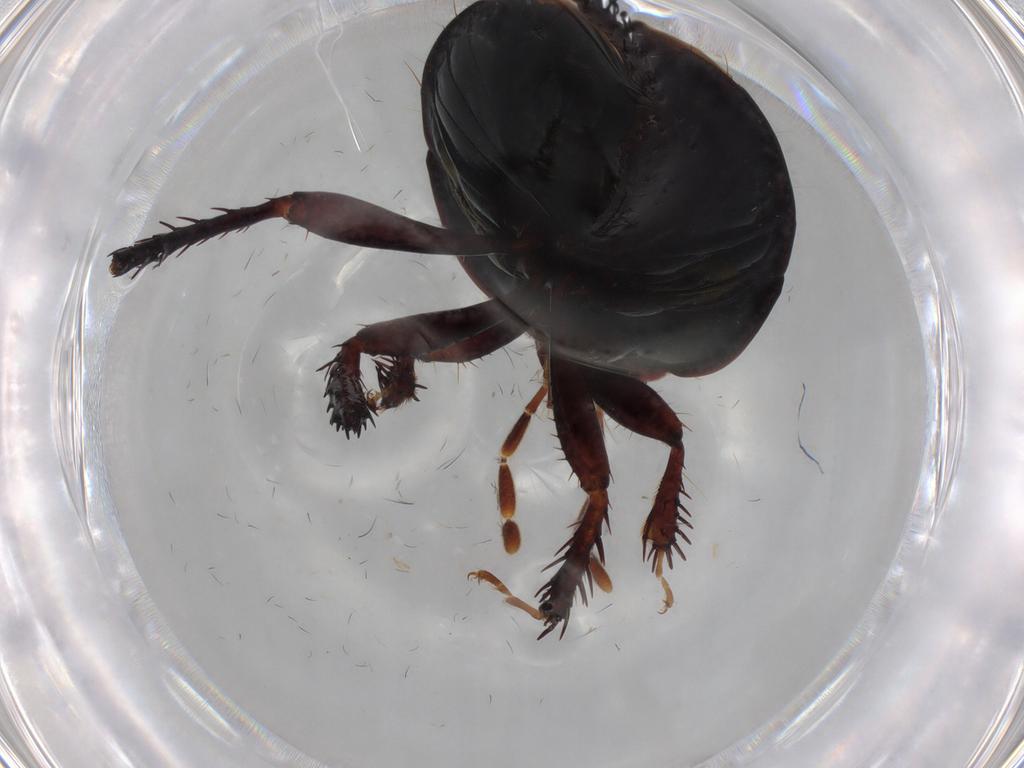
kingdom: Animalia
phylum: Arthropoda
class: Insecta
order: Hemiptera
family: Cydnidae
